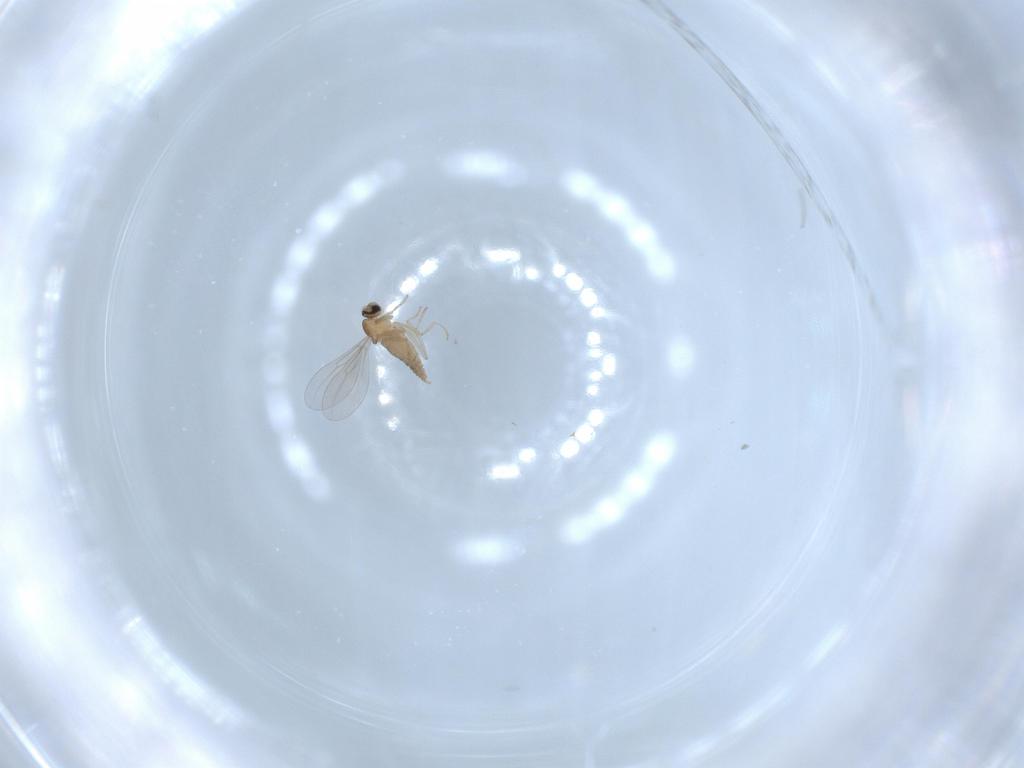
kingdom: Animalia
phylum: Arthropoda
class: Insecta
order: Diptera
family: Cecidomyiidae
